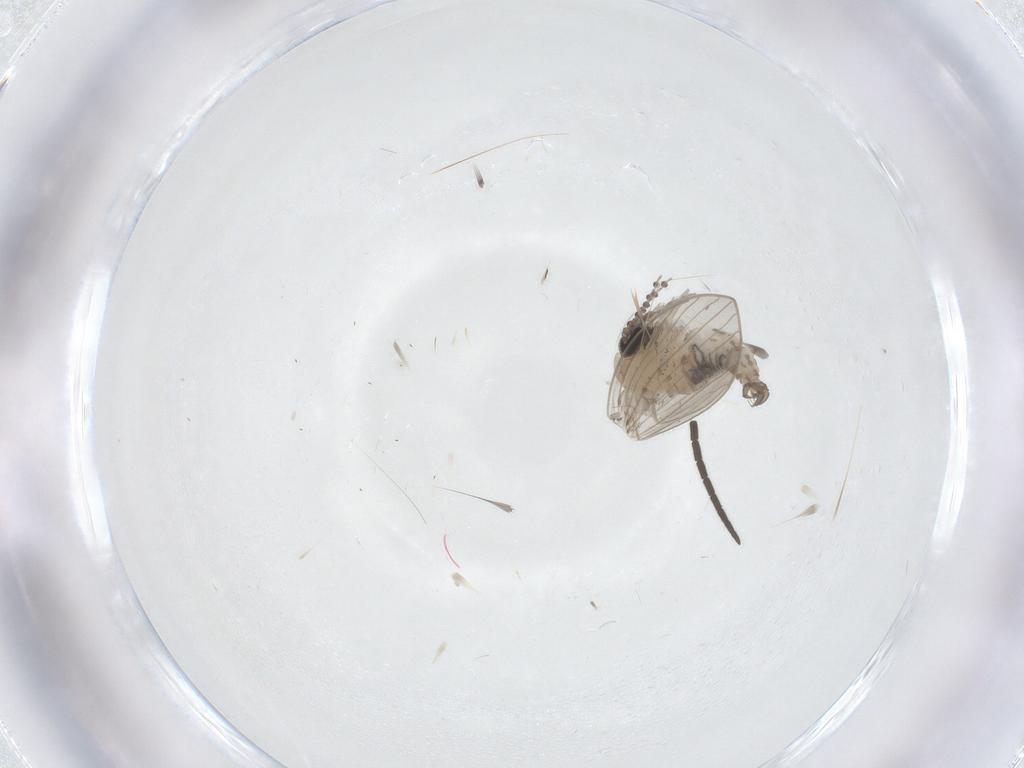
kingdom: Animalia
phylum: Arthropoda
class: Insecta
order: Diptera
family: Psychodidae
